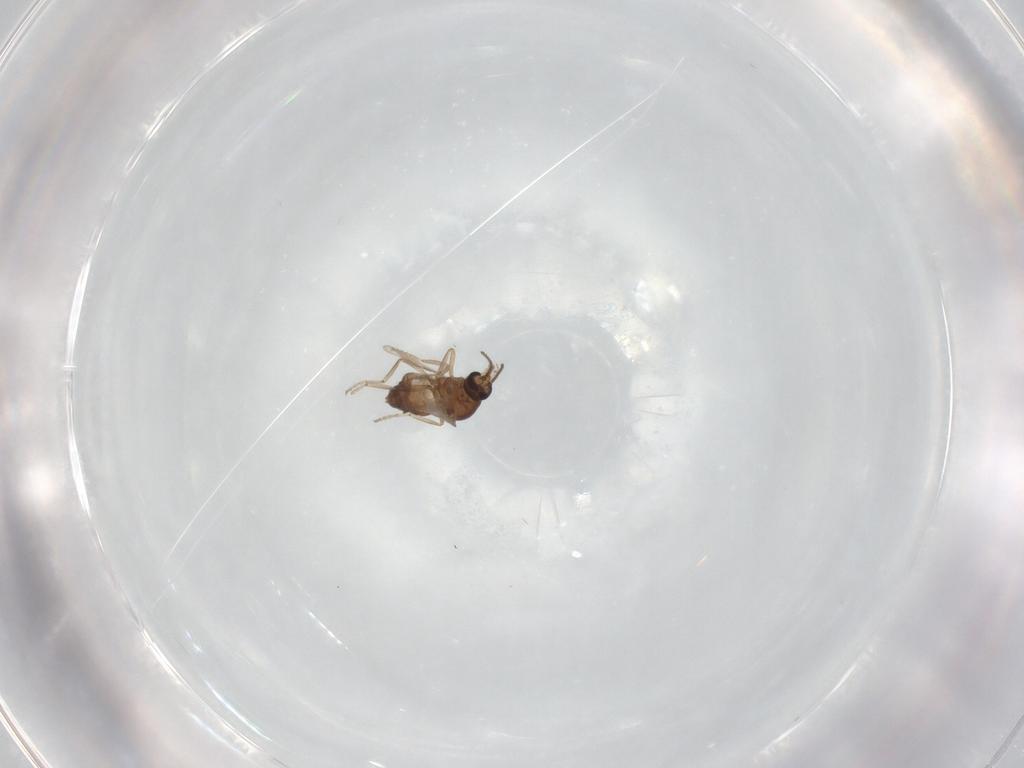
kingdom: Animalia
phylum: Arthropoda
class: Insecta
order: Diptera
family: Ceratopogonidae
